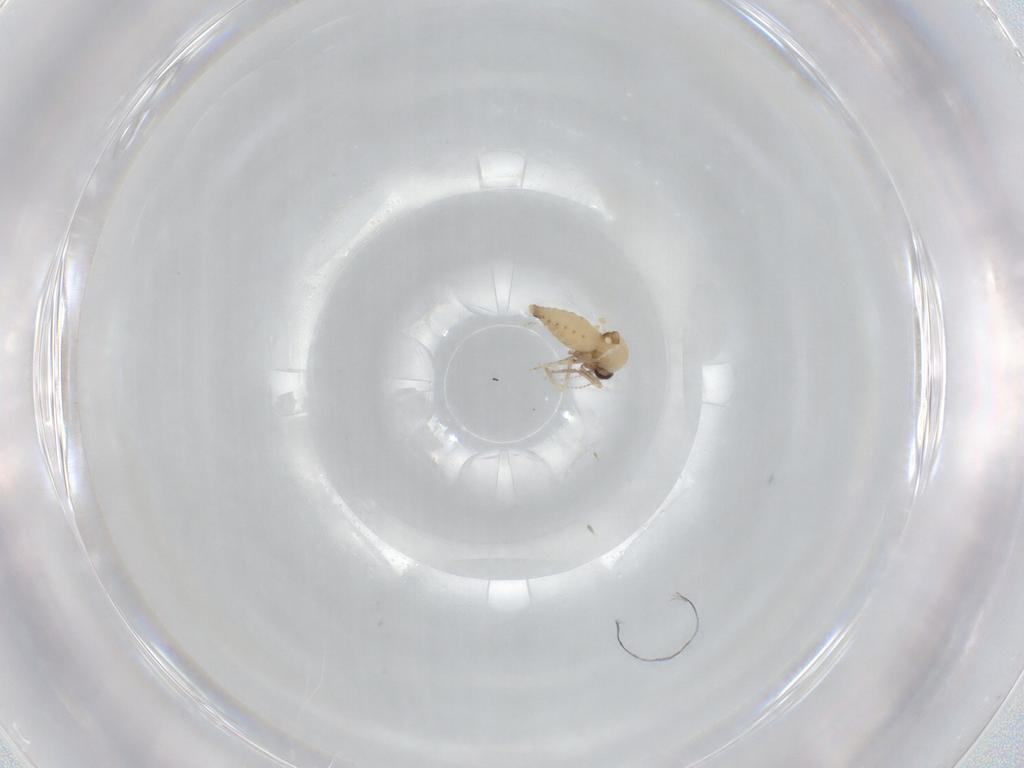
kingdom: Animalia
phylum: Arthropoda
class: Insecta
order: Diptera
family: Ceratopogonidae
